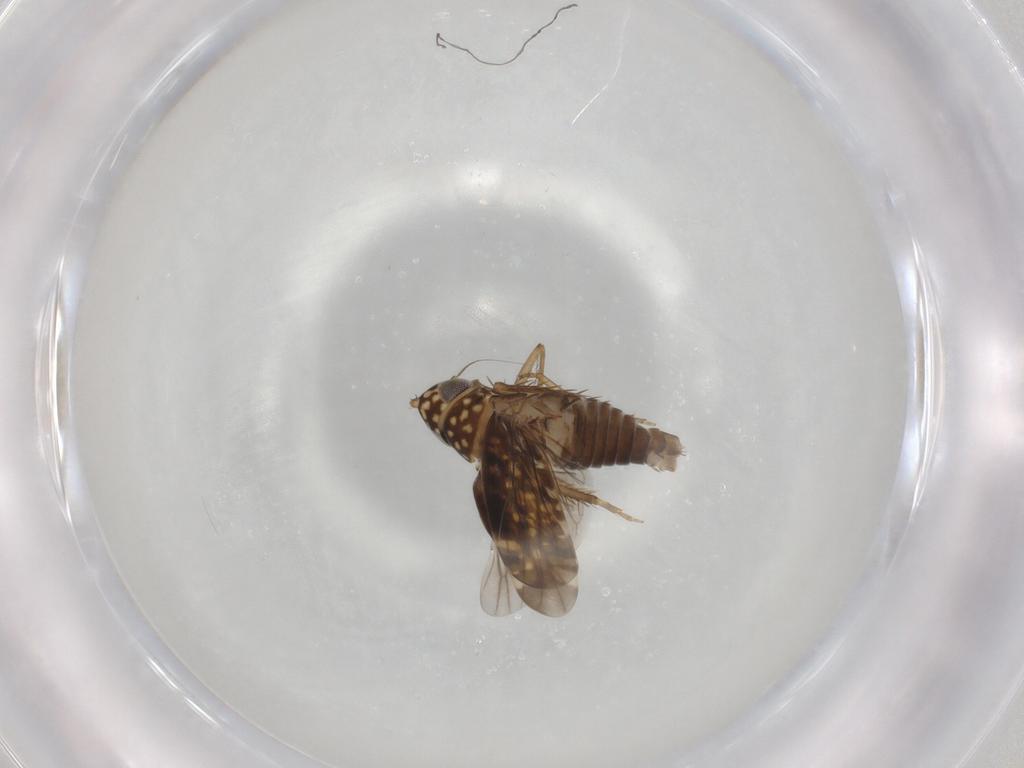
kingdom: Animalia
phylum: Arthropoda
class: Insecta
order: Hemiptera
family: Cicadellidae
